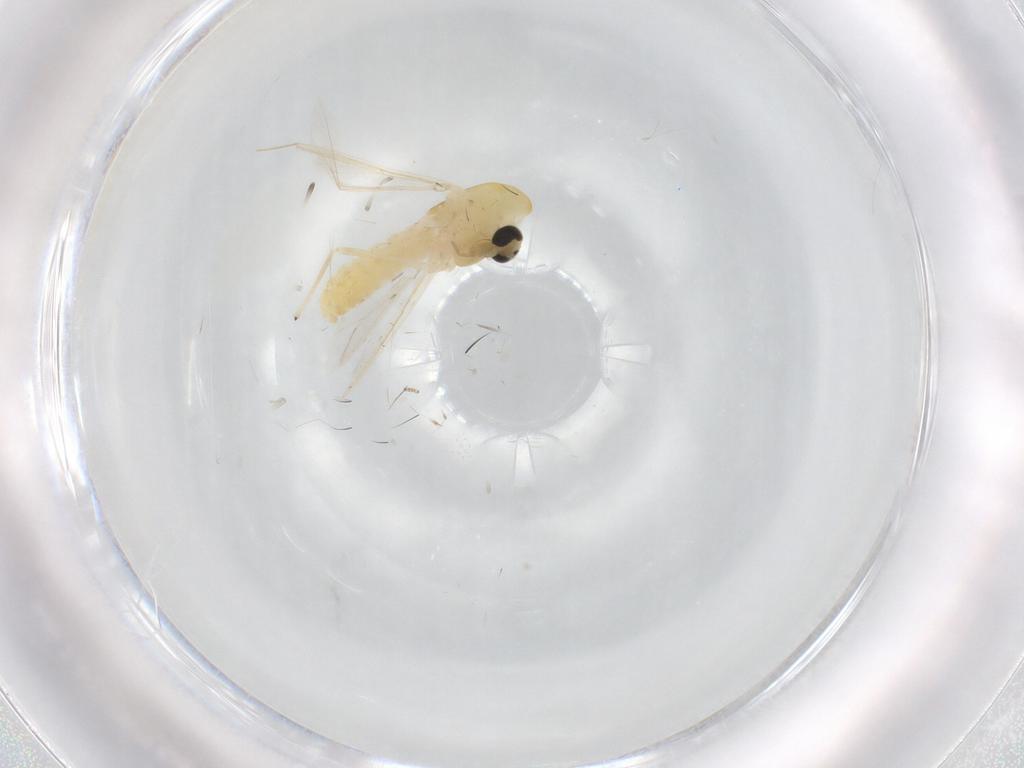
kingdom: Animalia
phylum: Arthropoda
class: Insecta
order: Diptera
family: Chironomidae
